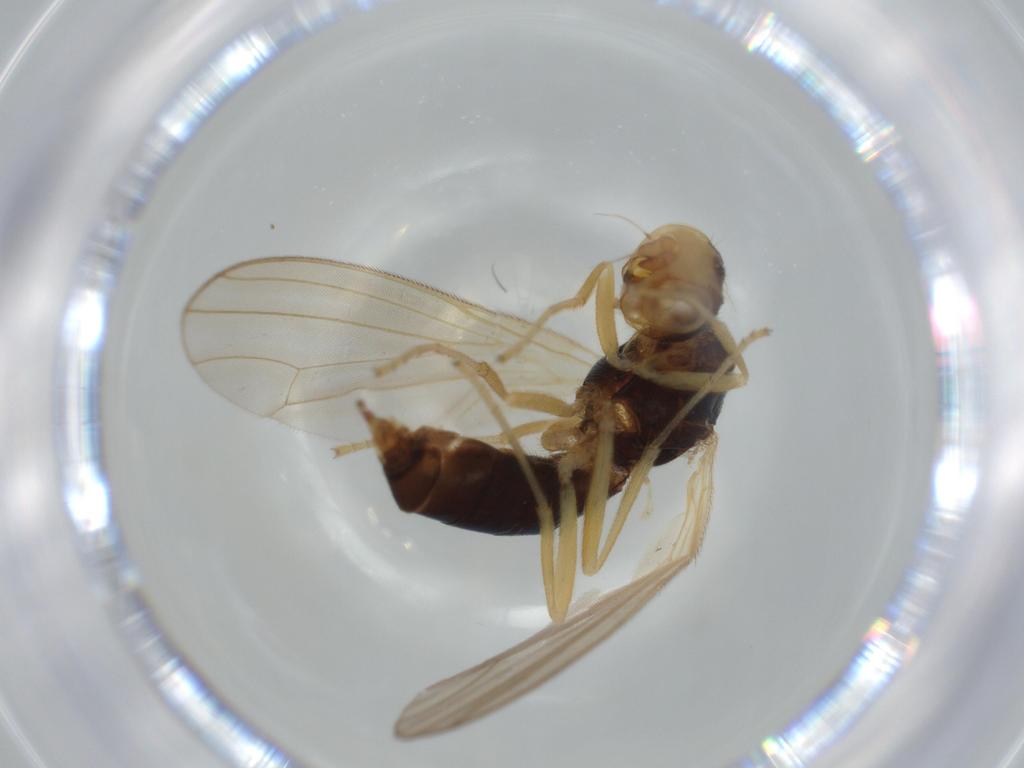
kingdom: Animalia
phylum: Arthropoda
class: Insecta
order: Diptera
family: Psilidae
